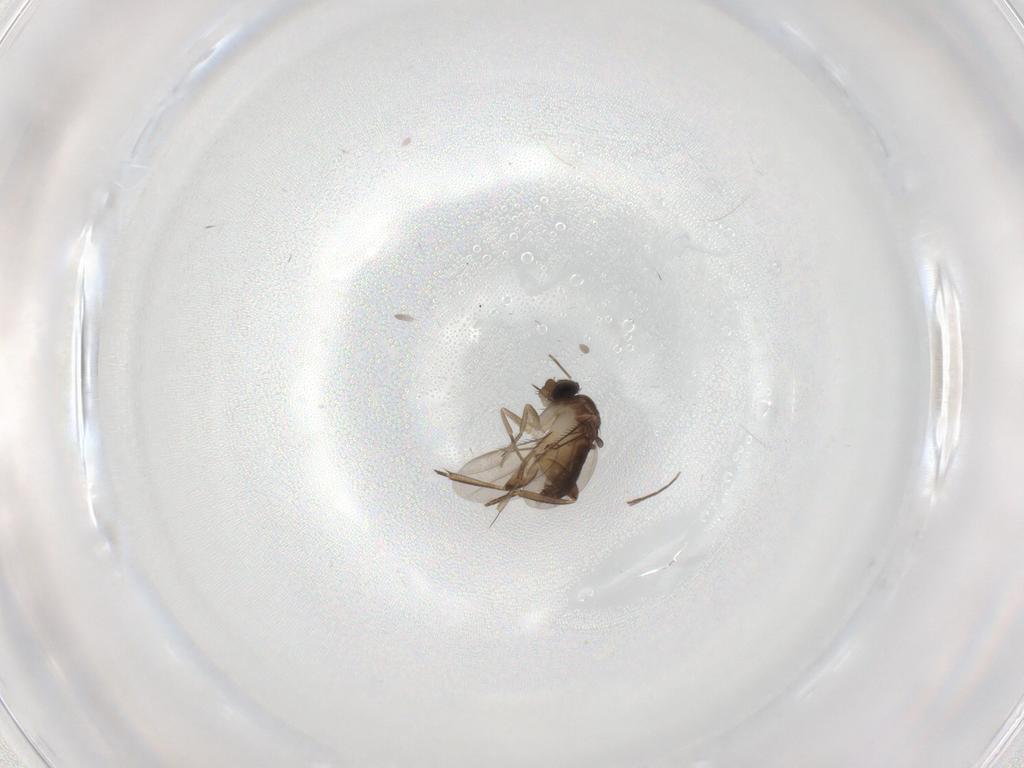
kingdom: Animalia
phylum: Arthropoda
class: Insecta
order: Diptera
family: Phoridae
